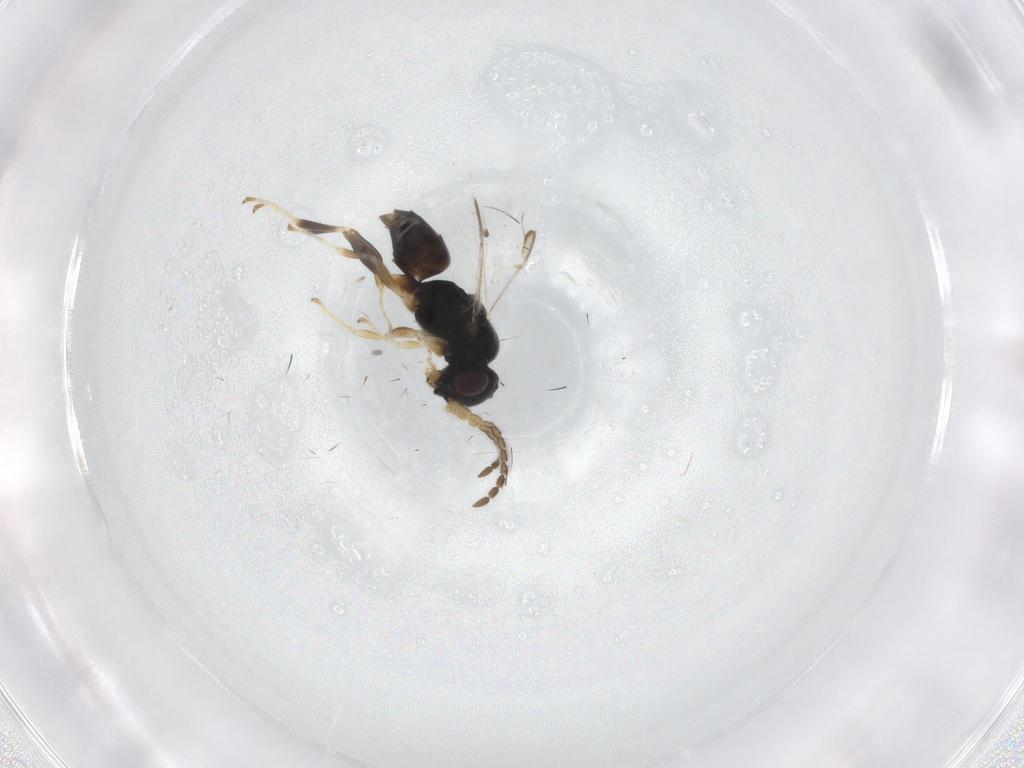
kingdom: Animalia
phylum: Arthropoda
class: Insecta
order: Hymenoptera
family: Dryinidae
